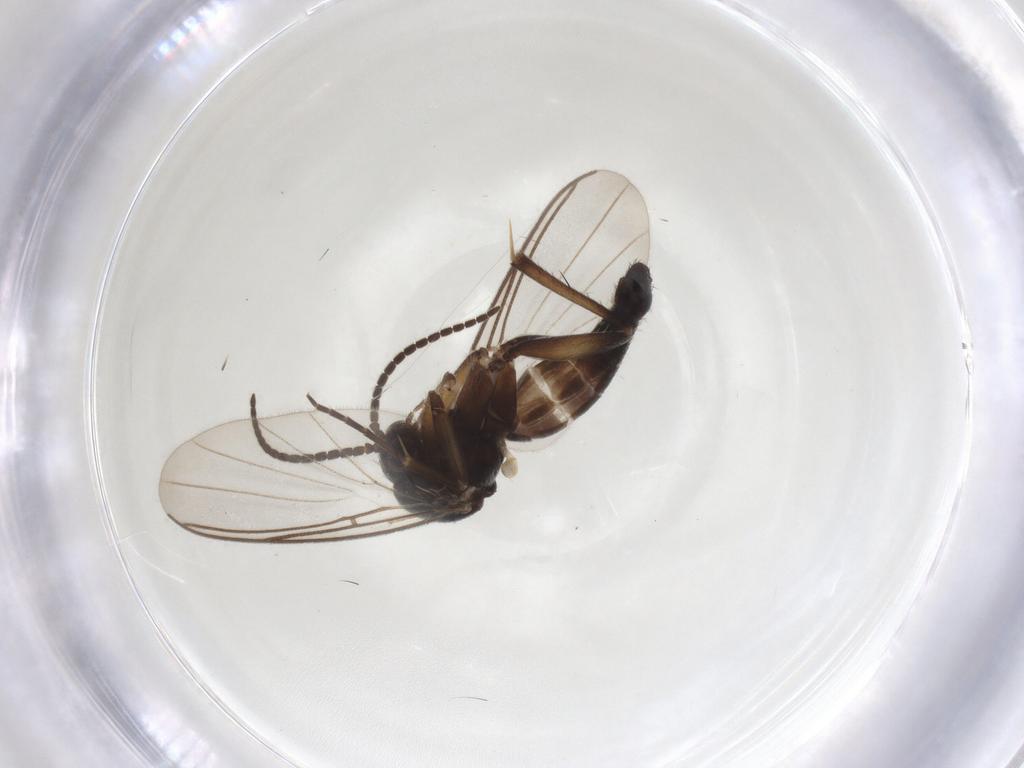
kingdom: Animalia
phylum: Arthropoda
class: Insecta
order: Diptera
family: Mycetophilidae
